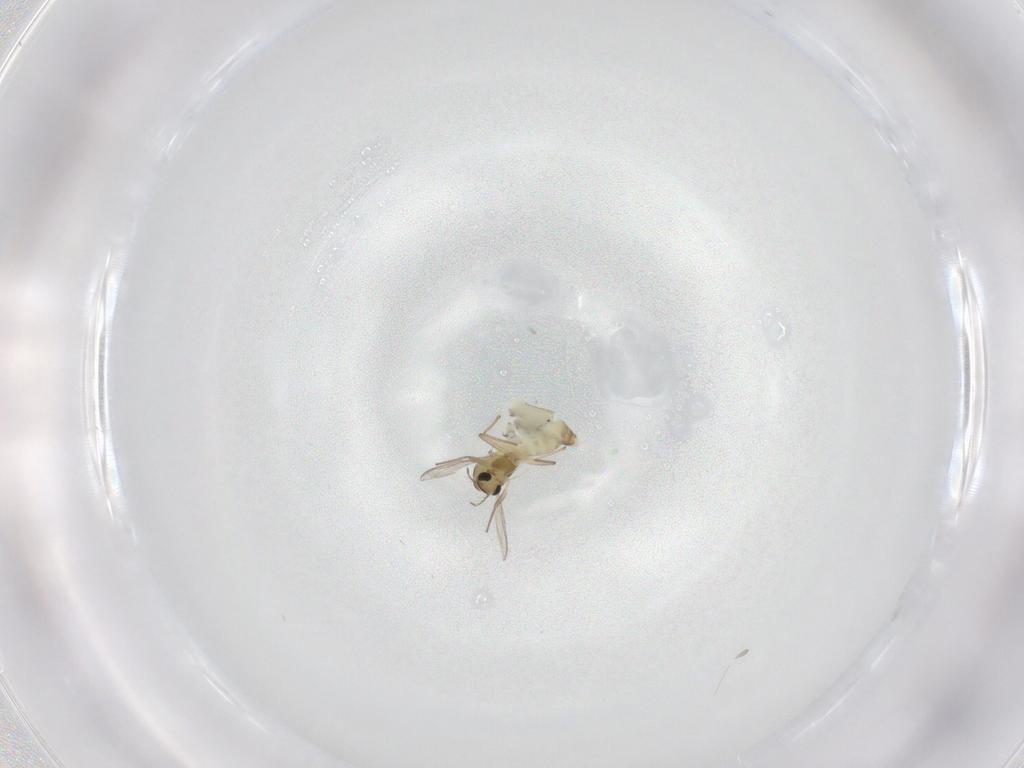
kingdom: Animalia
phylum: Arthropoda
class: Insecta
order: Diptera
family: Chironomidae
